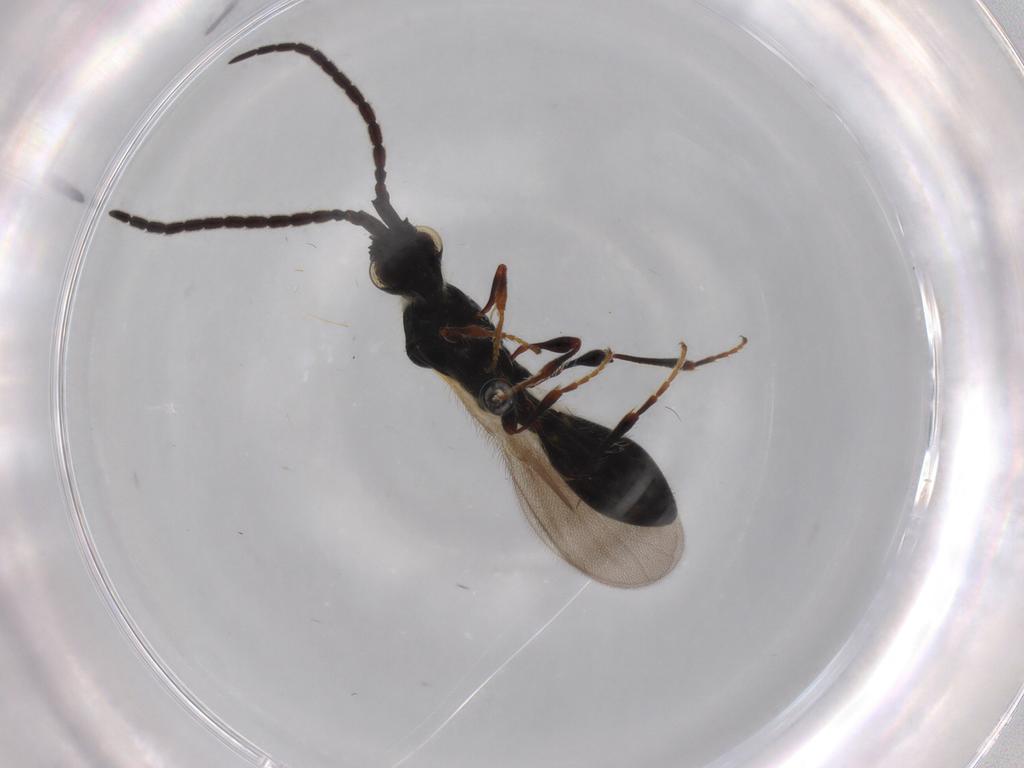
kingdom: Animalia
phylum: Arthropoda
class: Insecta
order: Hymenoptera
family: Diapriidae
